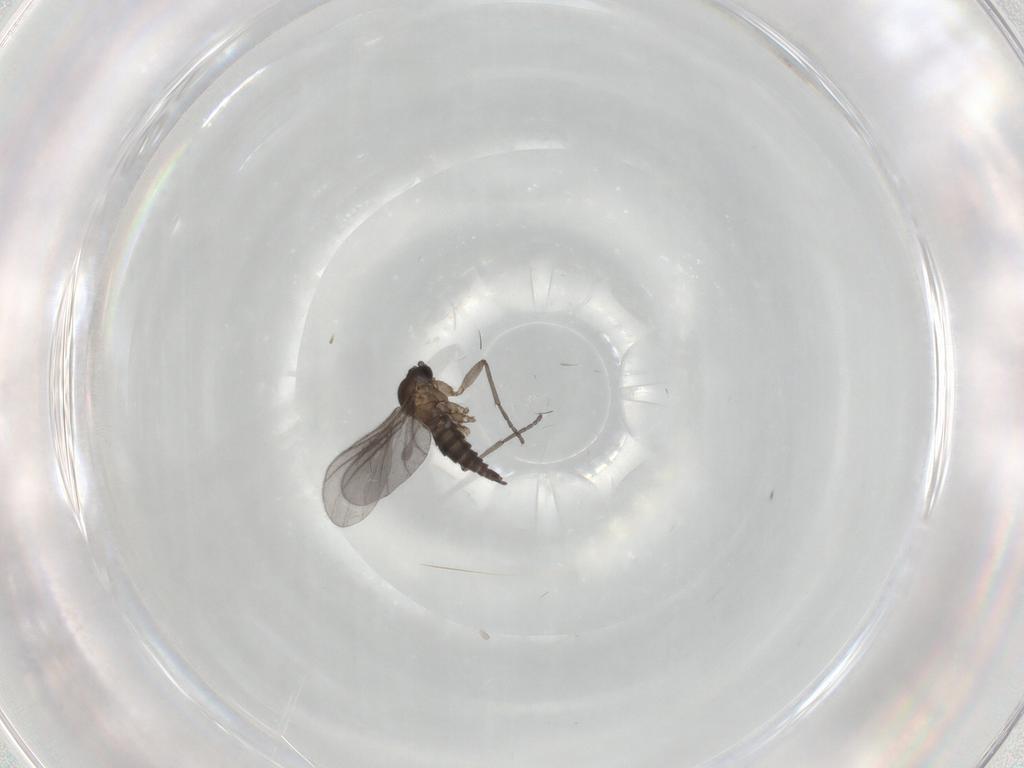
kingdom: Animalia
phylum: Arthropoda
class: Insecta
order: Diptera
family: Sciaridae
